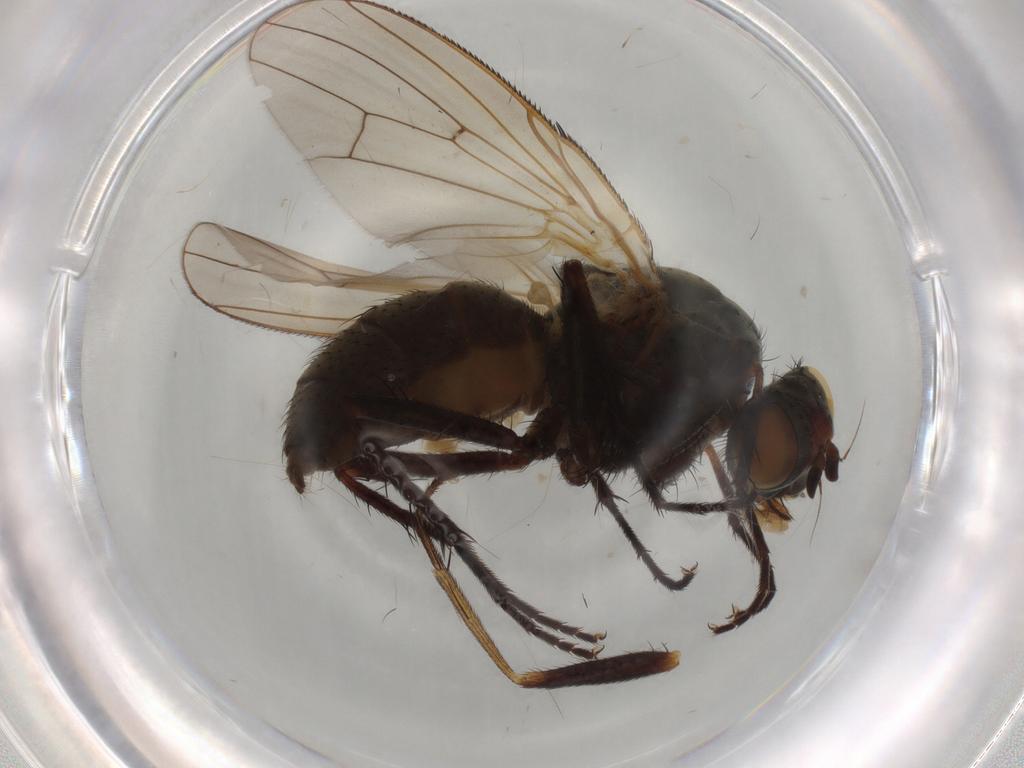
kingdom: Animalia
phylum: Arthropoda
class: Insecta
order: Diptera
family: Anthomyiidae
